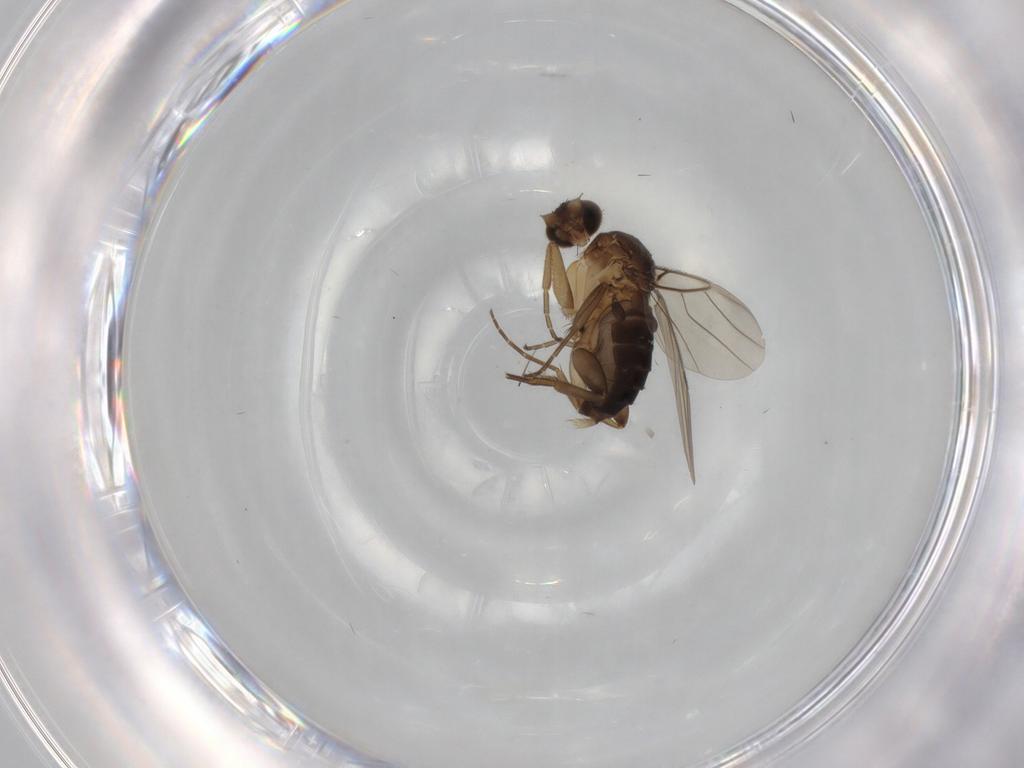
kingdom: Animalia
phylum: Arthropoda
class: Insecta
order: Diptera
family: Phoridae
